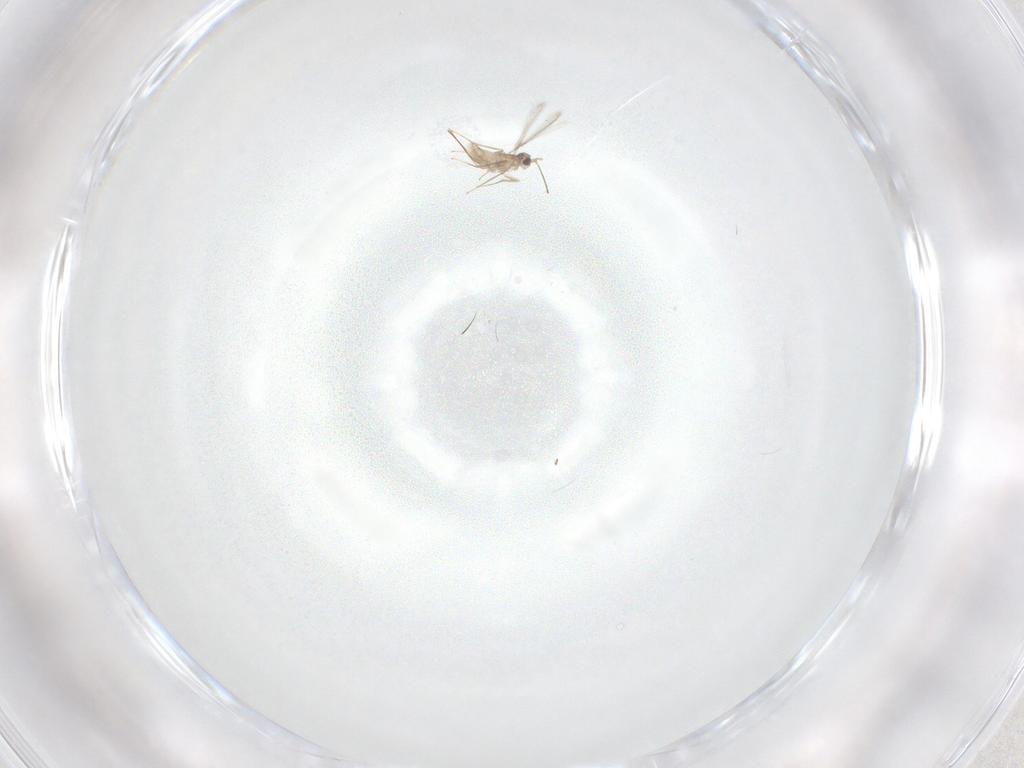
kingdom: Animalia
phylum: Arthropoda
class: Insecta
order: Hymenoptera
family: Mymaridae
